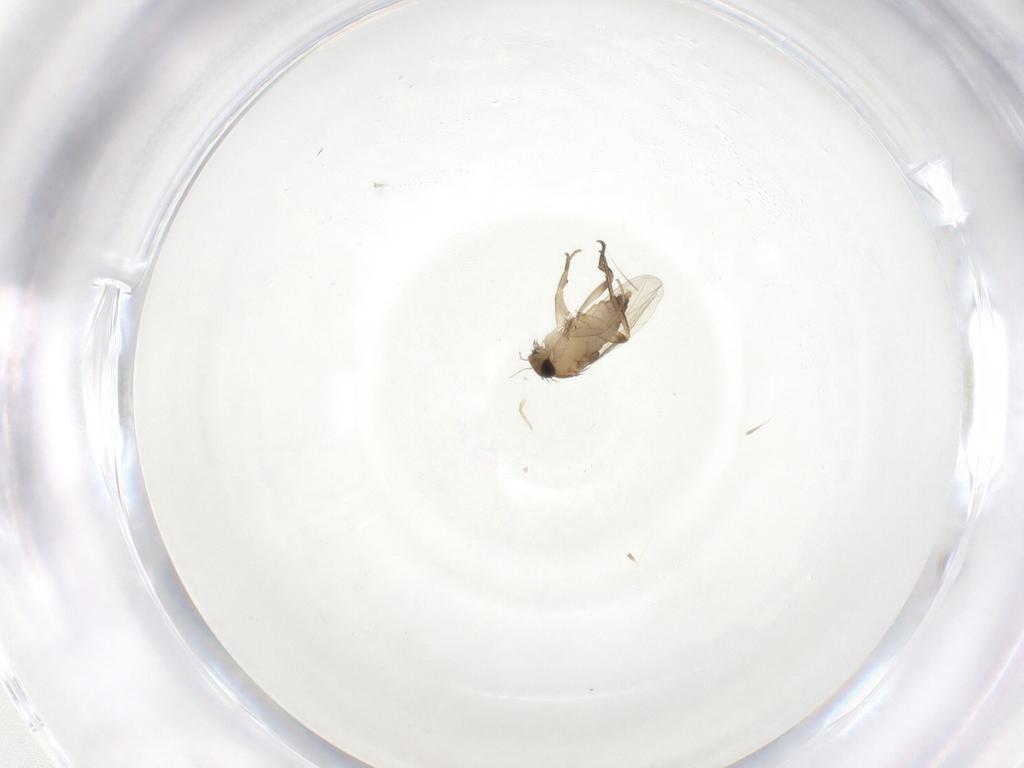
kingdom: Animalia
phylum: Arthropoda
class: Insecta
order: Diptera
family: Phoridae
